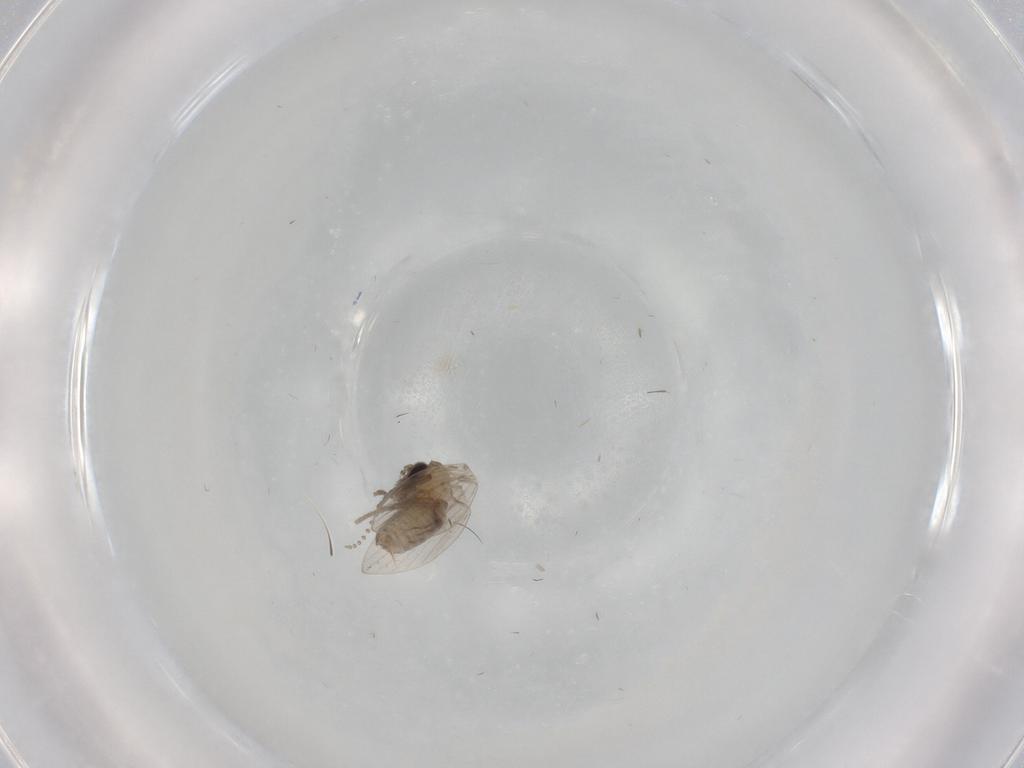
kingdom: Animalia
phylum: Arthropoda
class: Insecta
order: Diptera
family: Psychodidae
